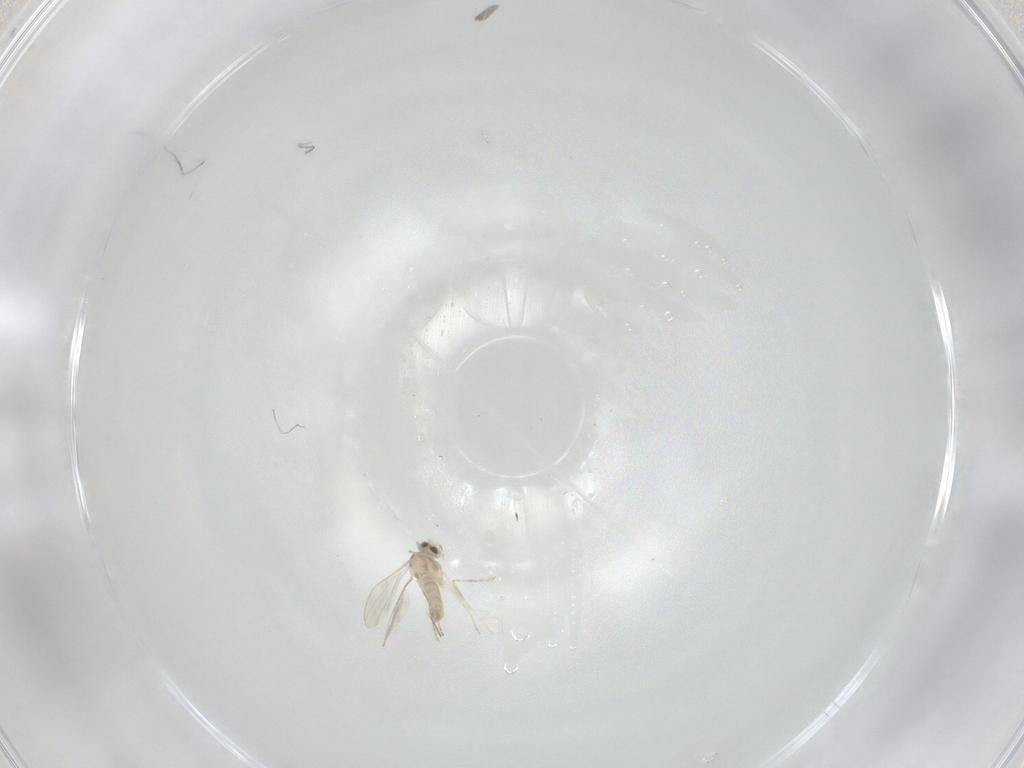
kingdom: Animalia
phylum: Arthropoda
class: Insecta
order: Diptera
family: Cecidomyiidae
